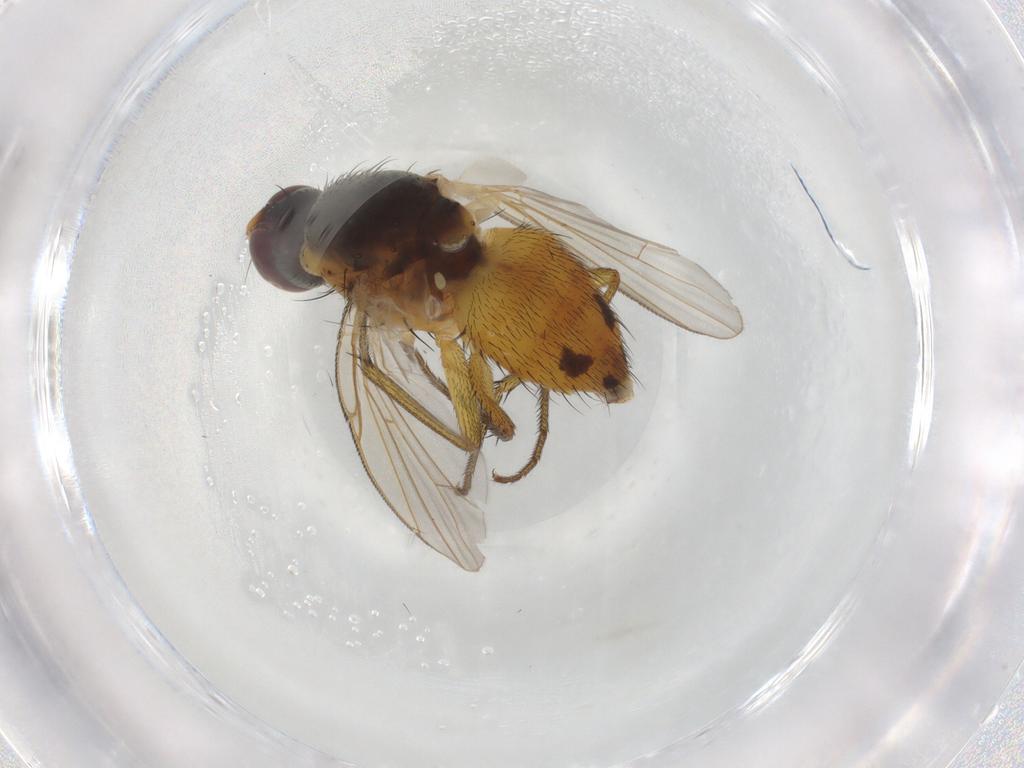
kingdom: Animalia
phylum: Arthropoda
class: Insecta
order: Diptera
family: Muscidae
